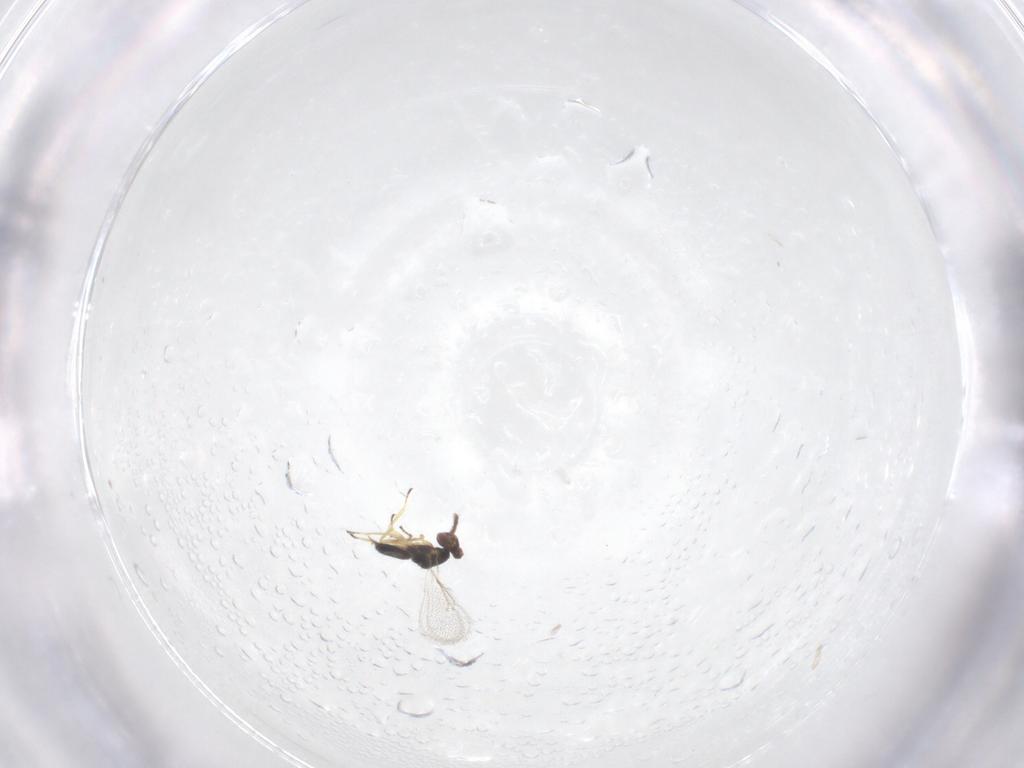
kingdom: Animalia
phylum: Arthropoda
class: Insecta
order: Hymenoptera
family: Eulophidae
